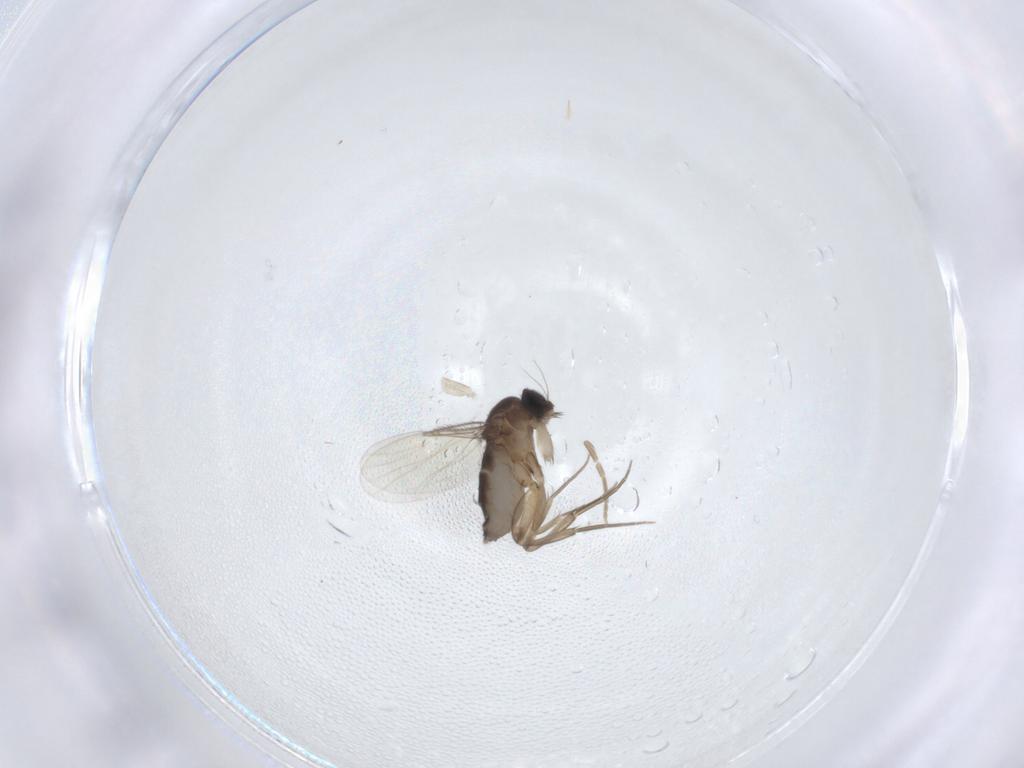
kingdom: Animalia
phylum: Arthropoda
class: Insecta
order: Diptera
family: Phoridae
